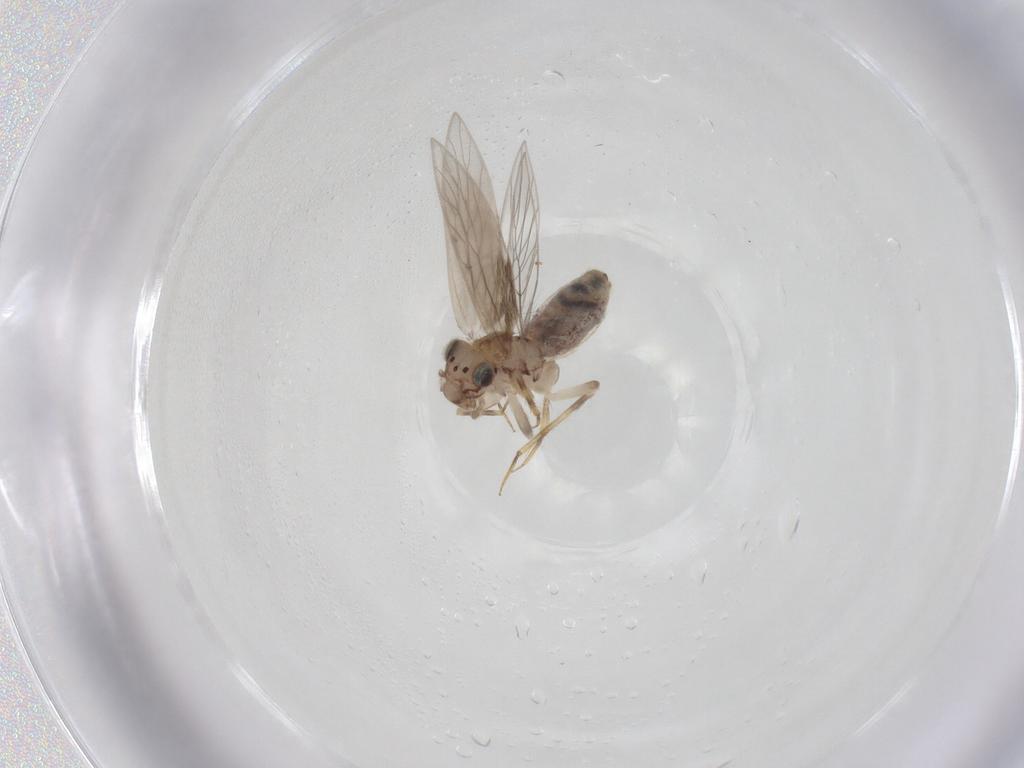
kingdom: Animalia
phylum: Arthropoda
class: Insecta
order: Psocodea
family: Lepidopsocidae
